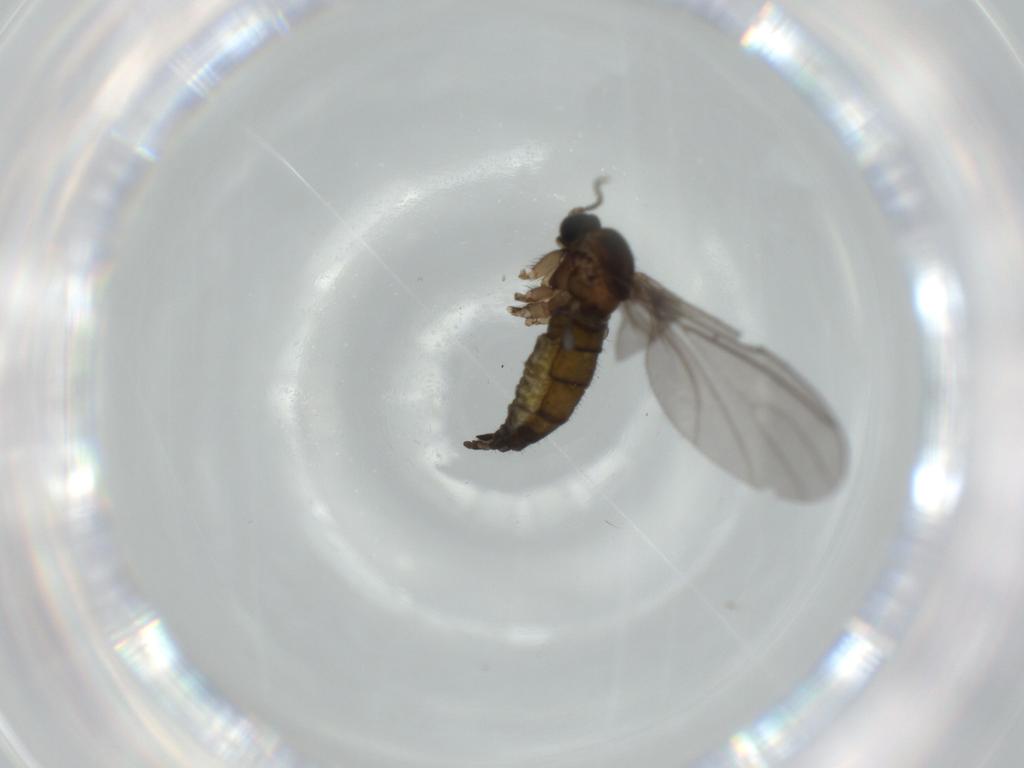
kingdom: Animalia
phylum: Arthropoda
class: Insecta
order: Diptera
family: Sciaridae
